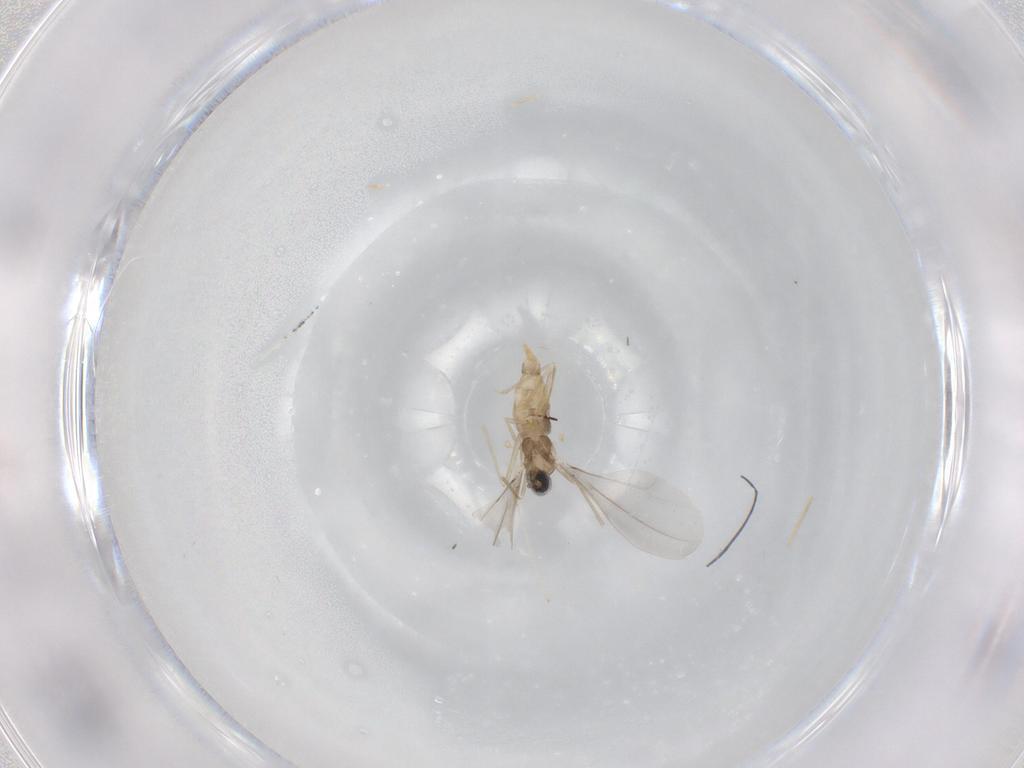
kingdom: Animalia
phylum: Arthropoda
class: Insecta
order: Diptera
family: Cecidomyiidae
